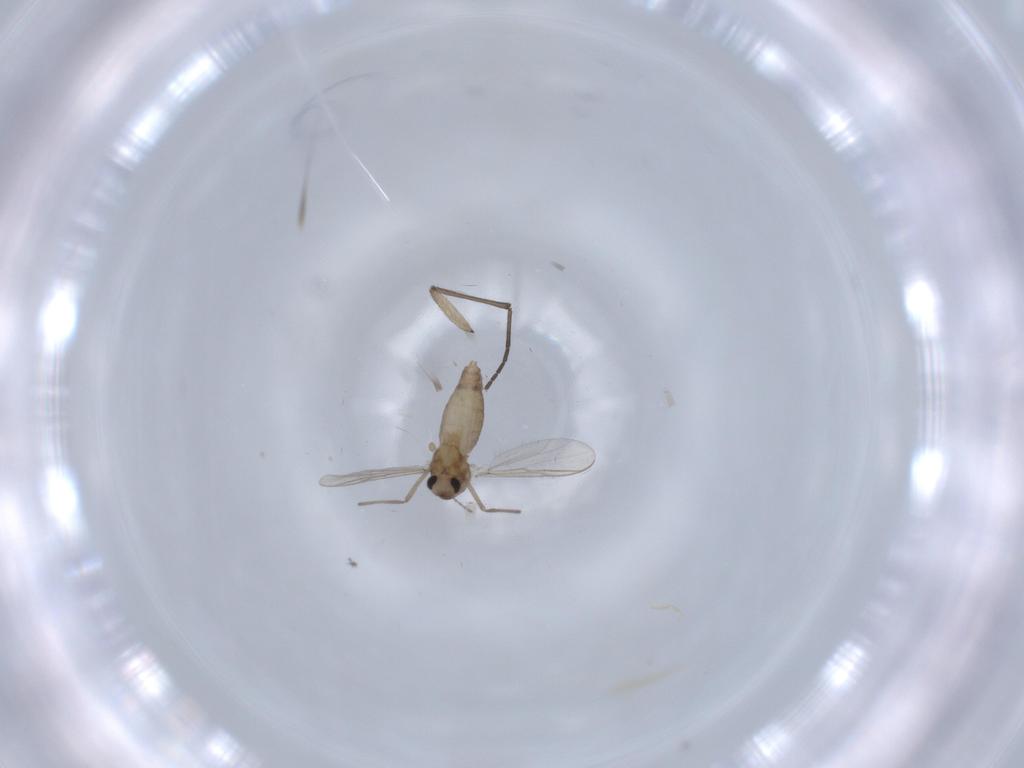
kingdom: Animalia
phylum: Arthropoda
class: Insecta
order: Diptera
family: Chironomidae
